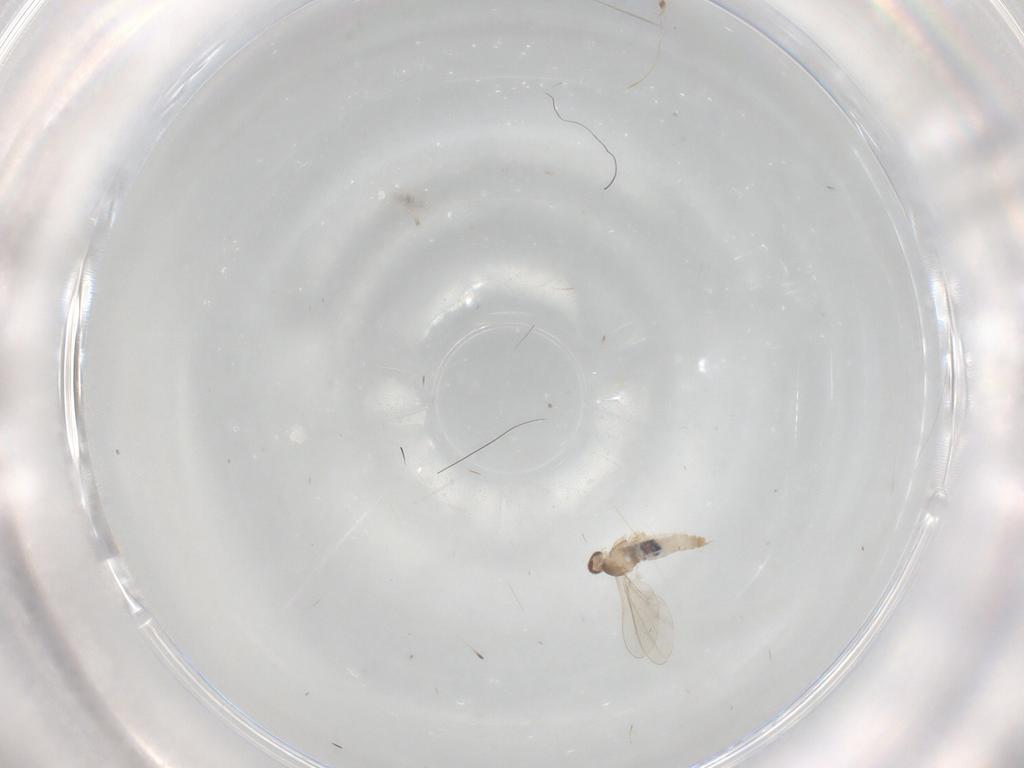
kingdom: Animalia
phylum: Arthropoda
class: Insecta
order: Diptera
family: Cecidomyiidae
